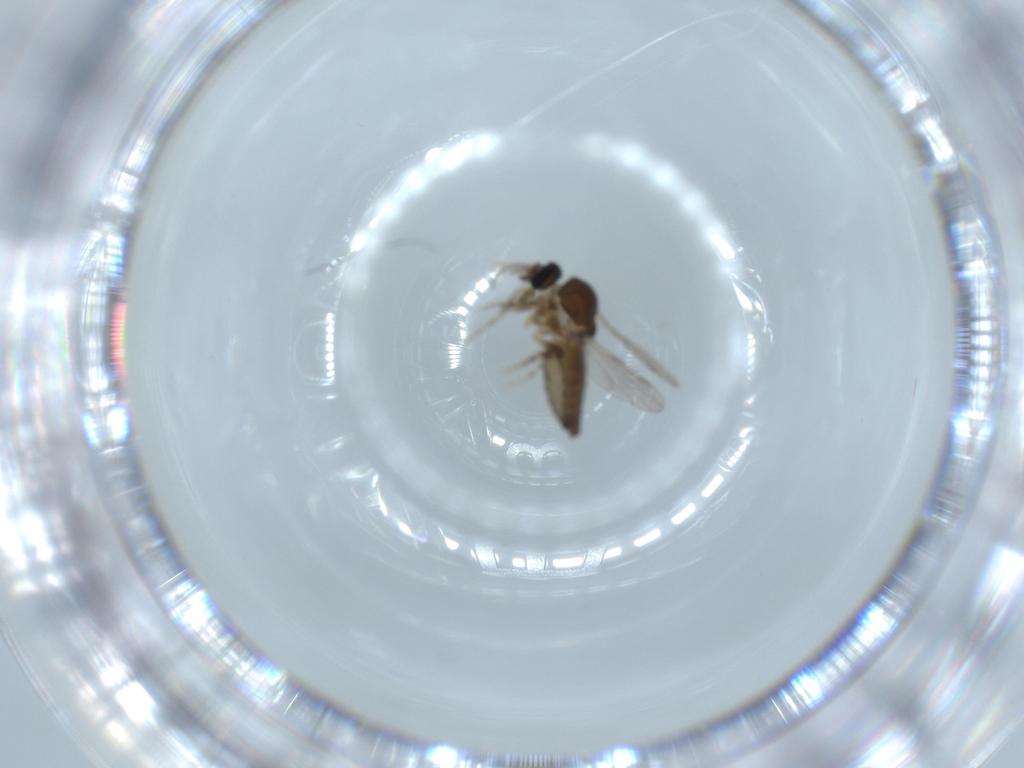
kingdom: Animalia
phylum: Arthropoda
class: Insecta
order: Diptera
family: Ceratopogonidae
